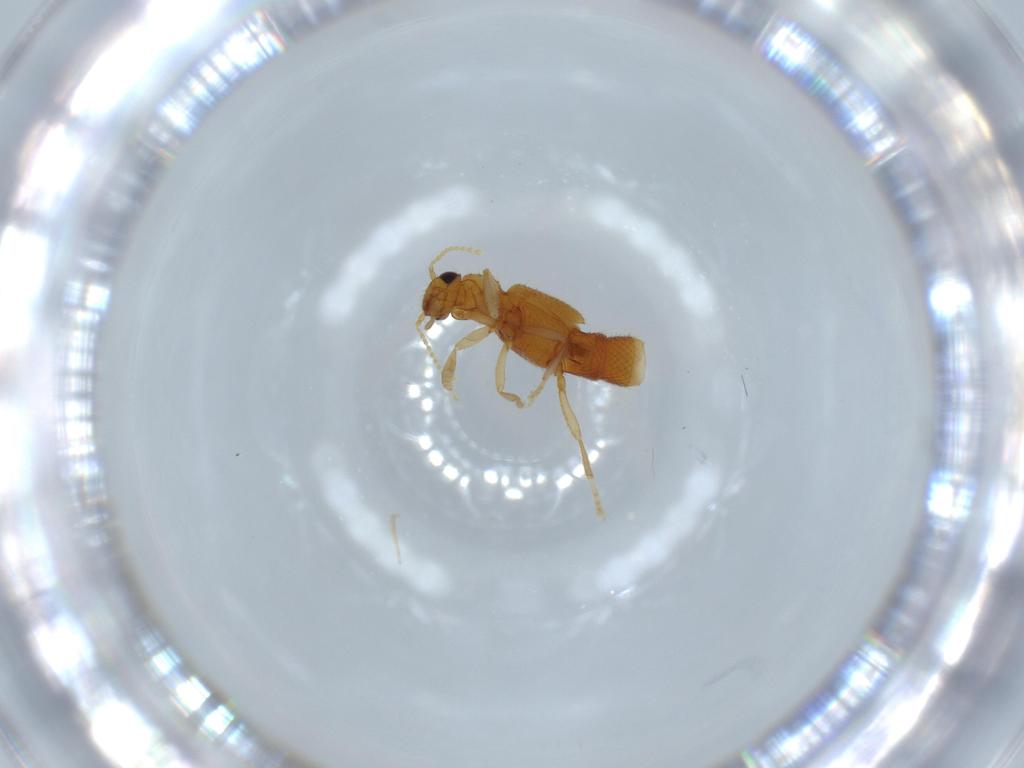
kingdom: Animalia
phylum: Arthropoda
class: Insecta
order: Coleoptera
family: Staphylinidae
